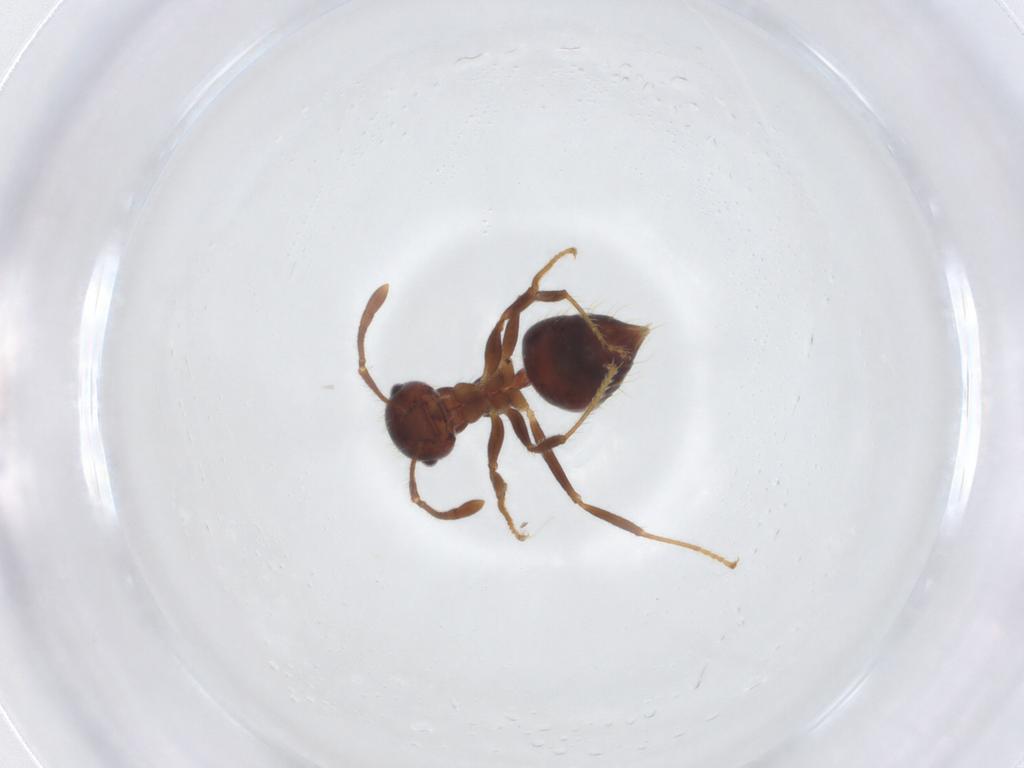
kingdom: Animalia
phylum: Arthropoda
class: Insecta
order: Hymenoptera
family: Formicidae
